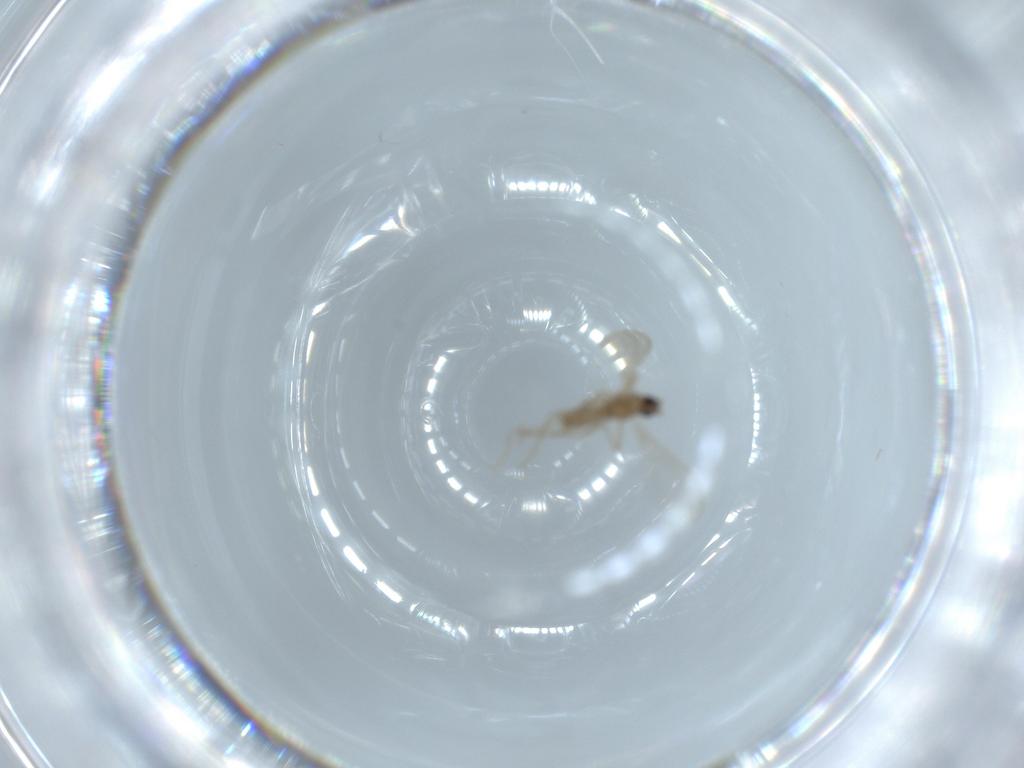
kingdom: Animalia
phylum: Arthropoda
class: Insecta
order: Diptera
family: Cecidomyiidae
